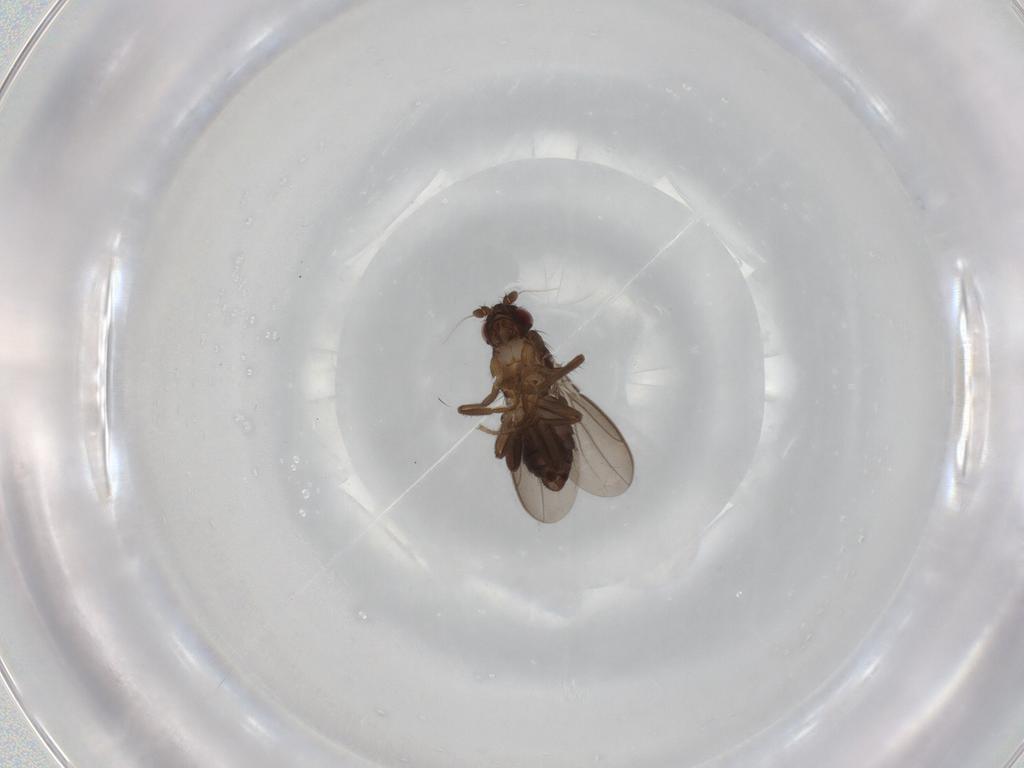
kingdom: Animalia
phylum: Arthropoda
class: Insecta
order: Diptera
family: Sphaeroceridae
